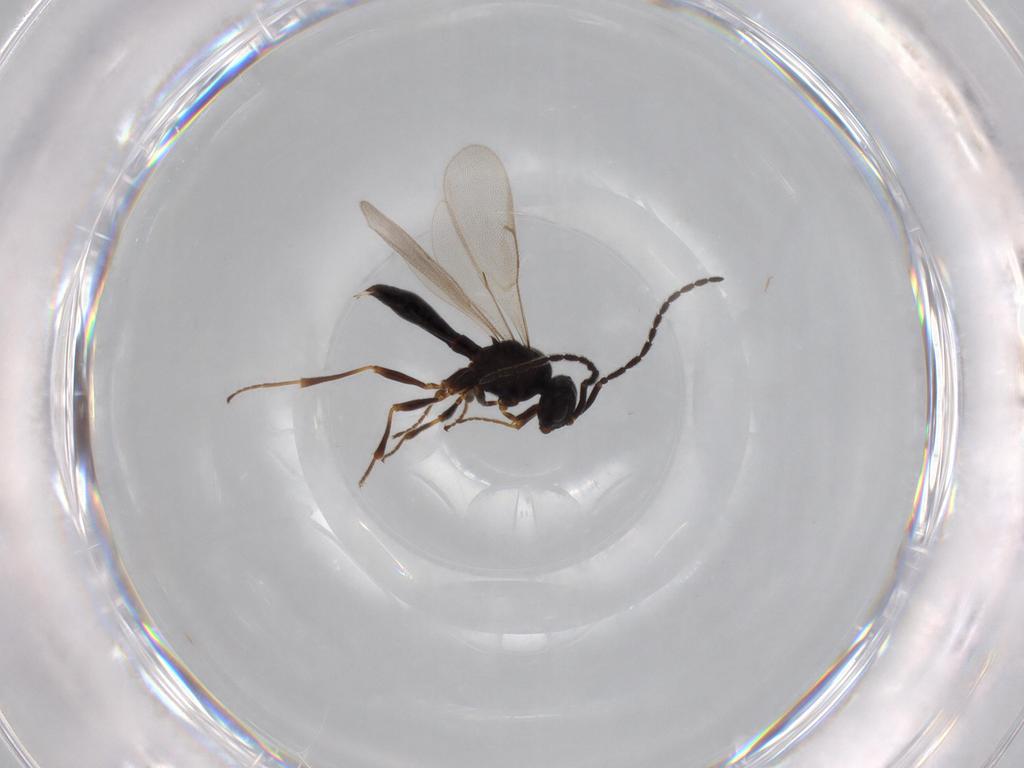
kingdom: Animalia
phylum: Arthropoda
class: Insecta
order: Hymenoptera
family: Scelionidae
